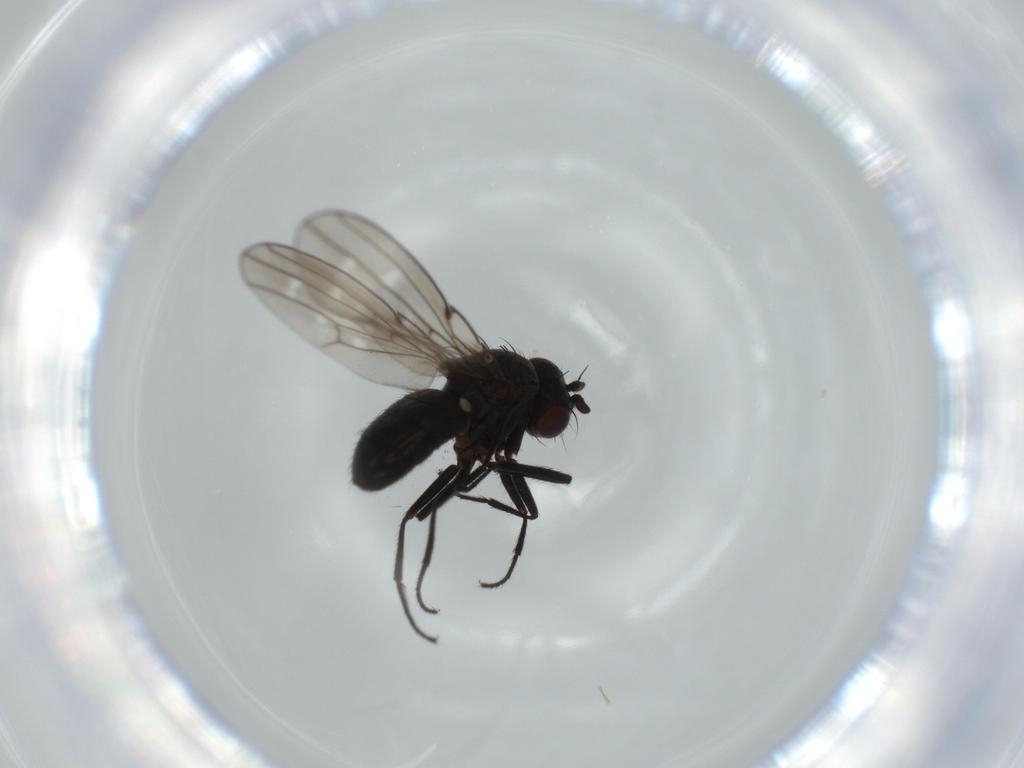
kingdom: Animalia
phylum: Arthropoda
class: Insecta
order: Diptera
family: Ephydridae
